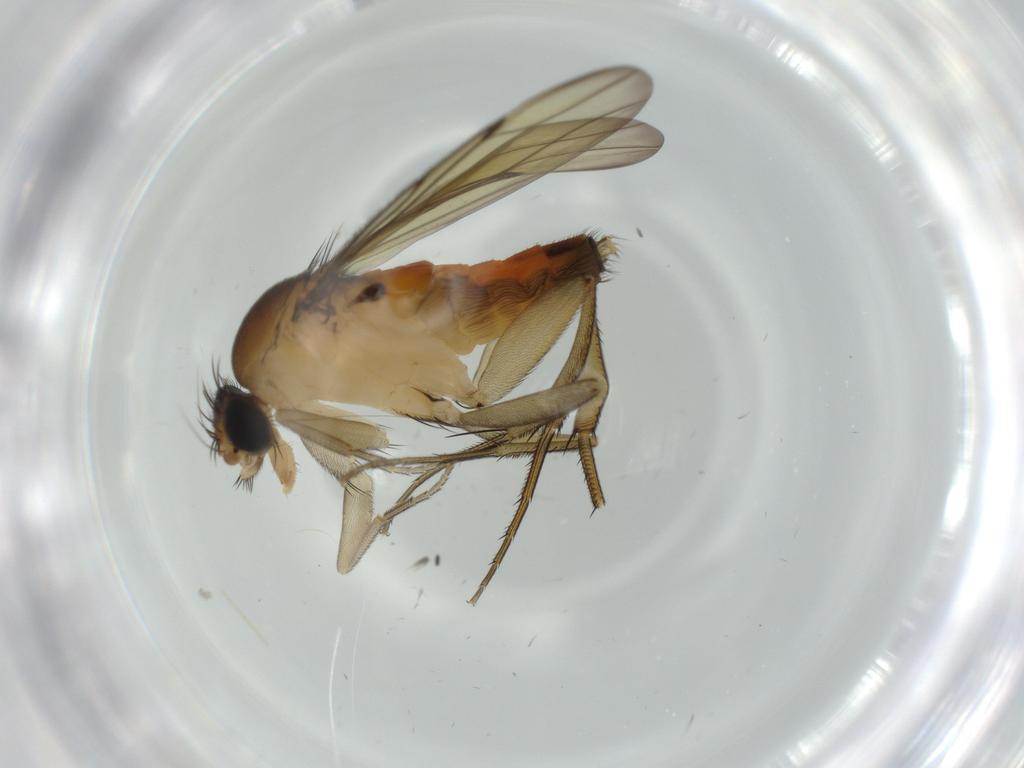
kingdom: Animalia
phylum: Arthropoda
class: Insecta
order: Diptera
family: Phoridae
